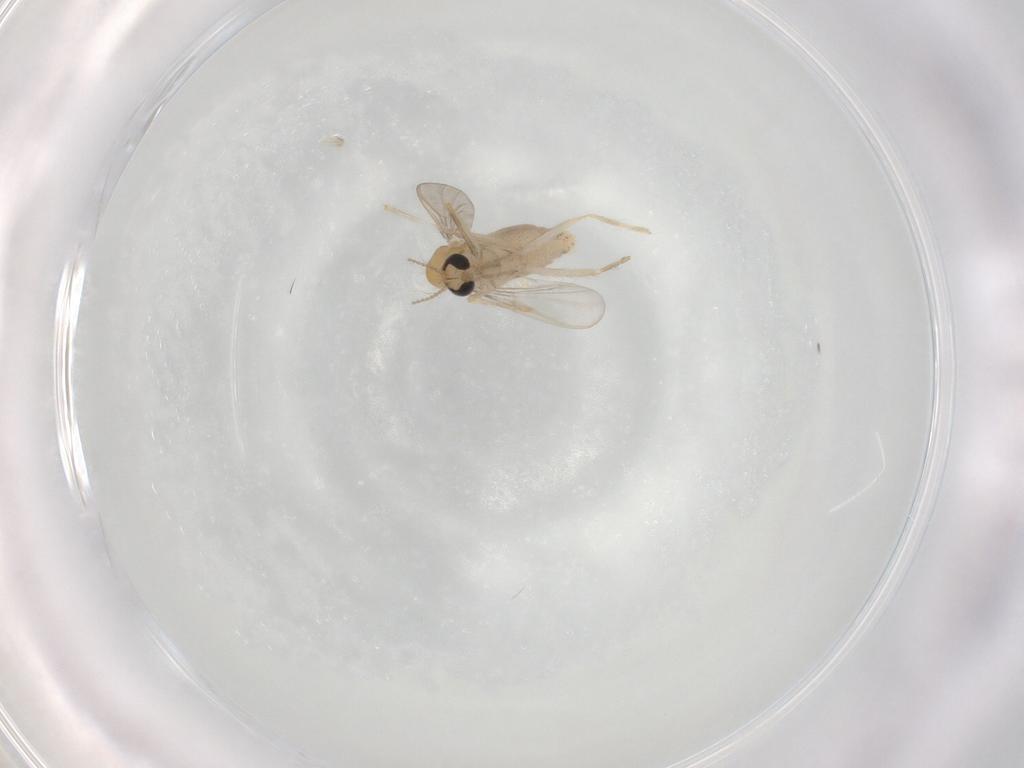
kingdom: Animalia
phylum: Arthropoda
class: Insecta
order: Diptera
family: Chironomidae
